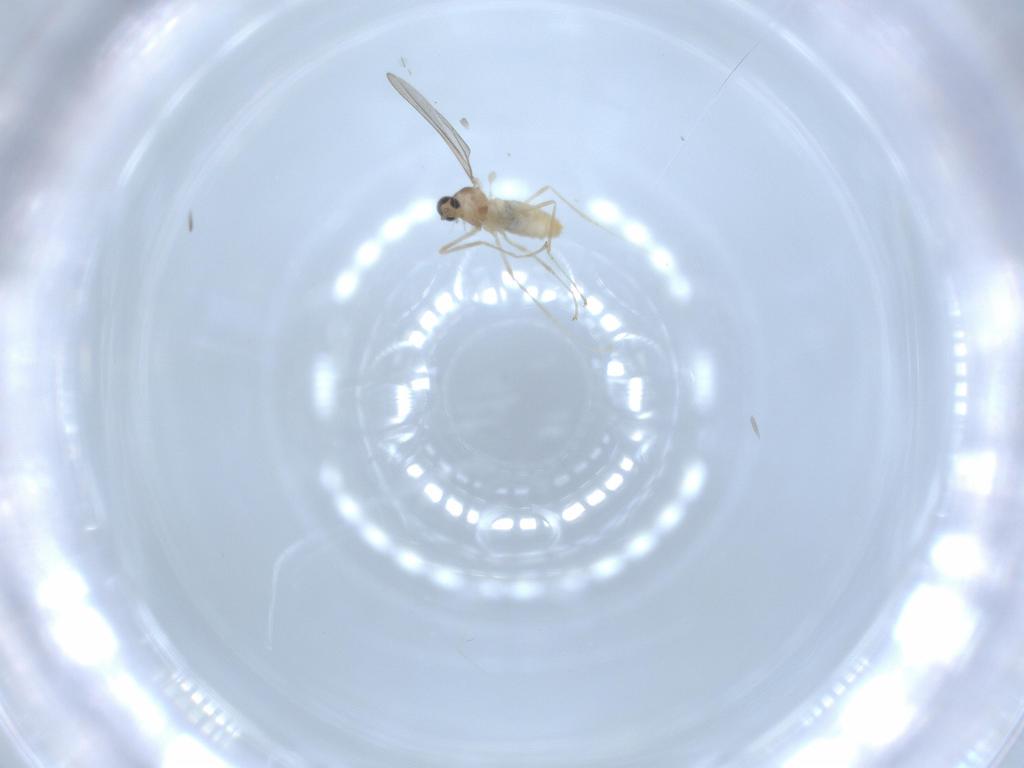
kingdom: Animalia
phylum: Arthropoda
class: Insecta
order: Diptera
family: Cecidomyiidae
